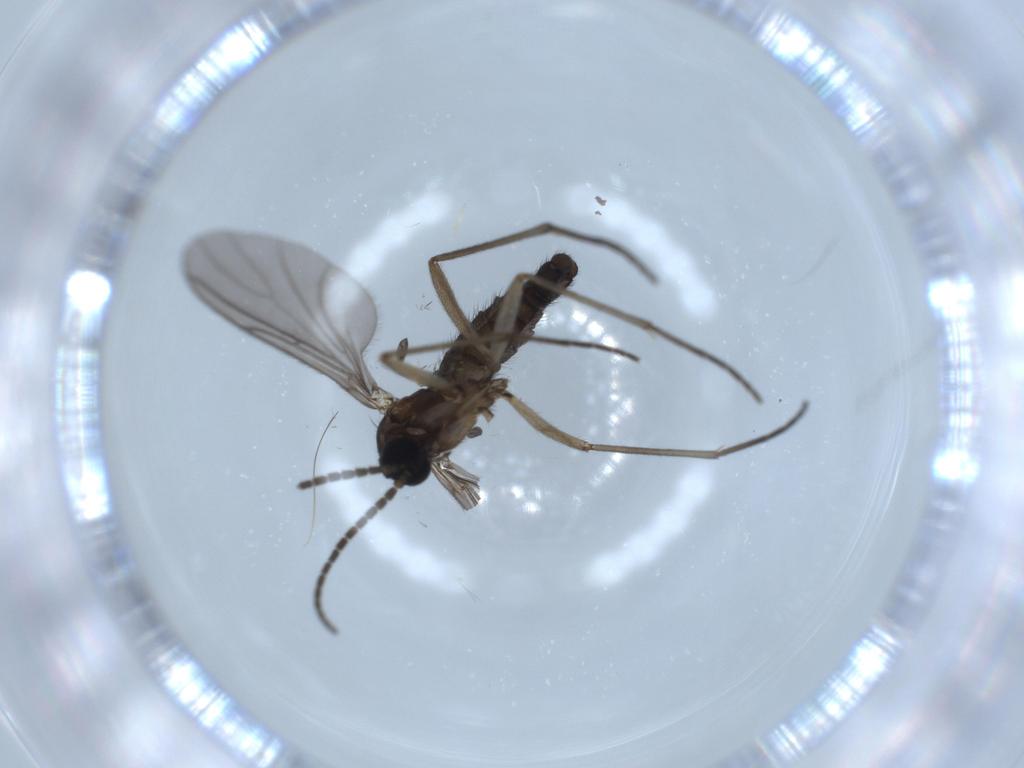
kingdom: Animalia
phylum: Arthropoda
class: Insecta
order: Diptera
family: Sciaridae
